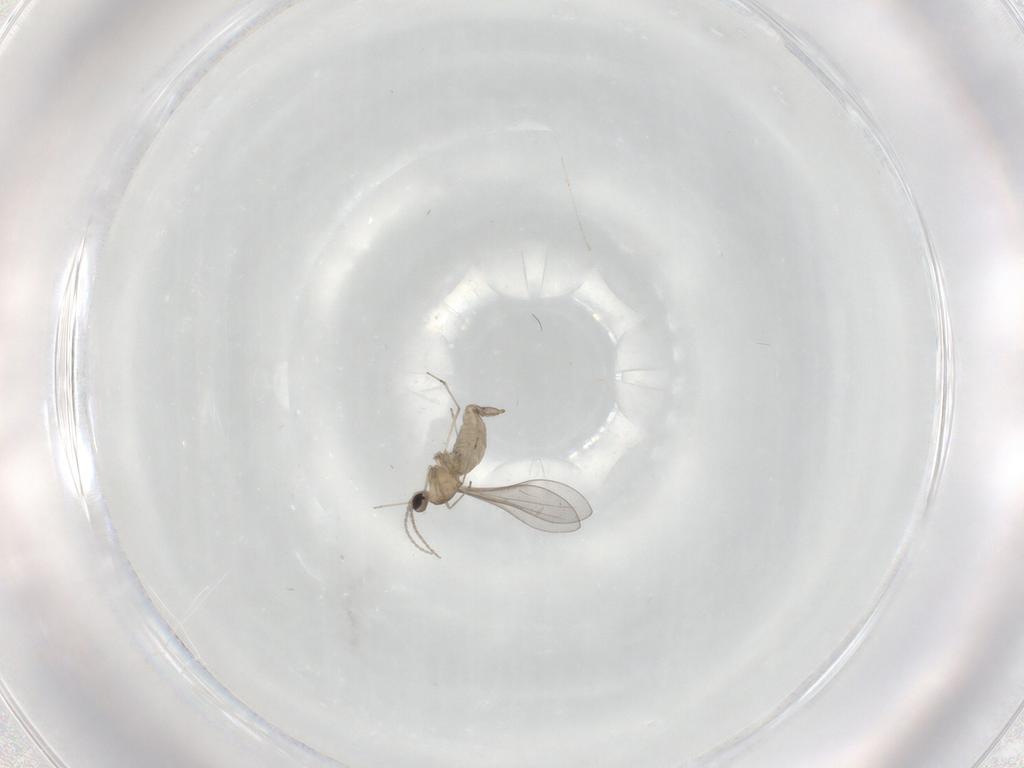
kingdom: Animalia
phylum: Arthropoda
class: Insecta
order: Diptera
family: Cecidomyiidae
